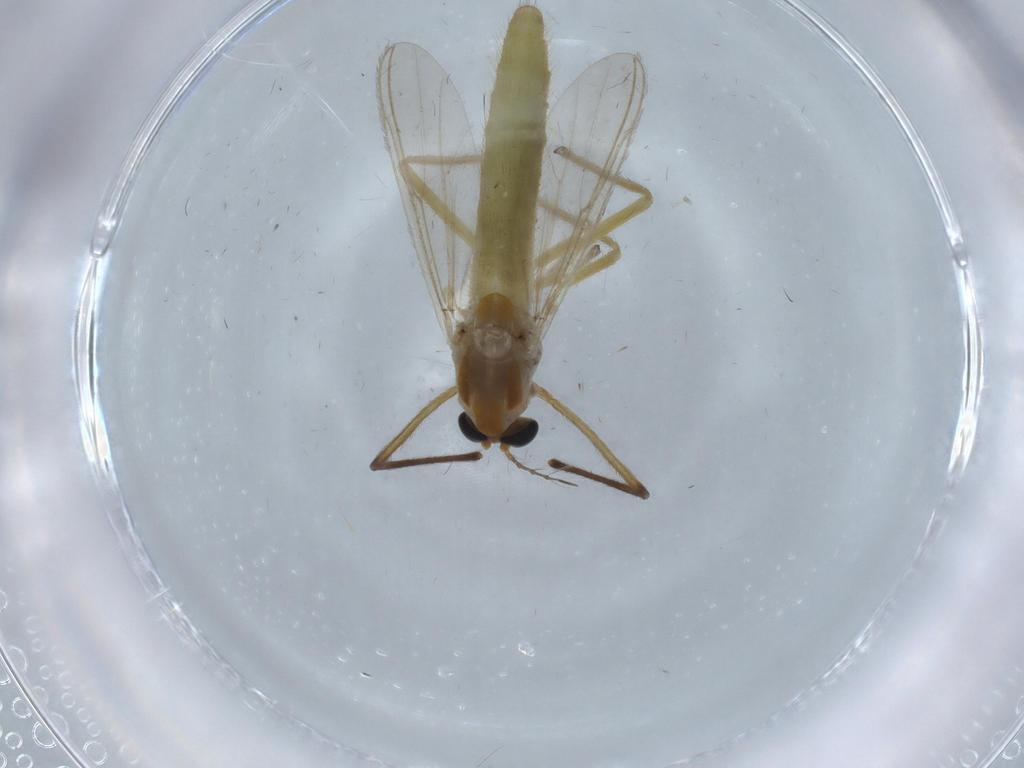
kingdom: Animalia
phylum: Arthropoda
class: Insecta
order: Diptera
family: Chironomidae
